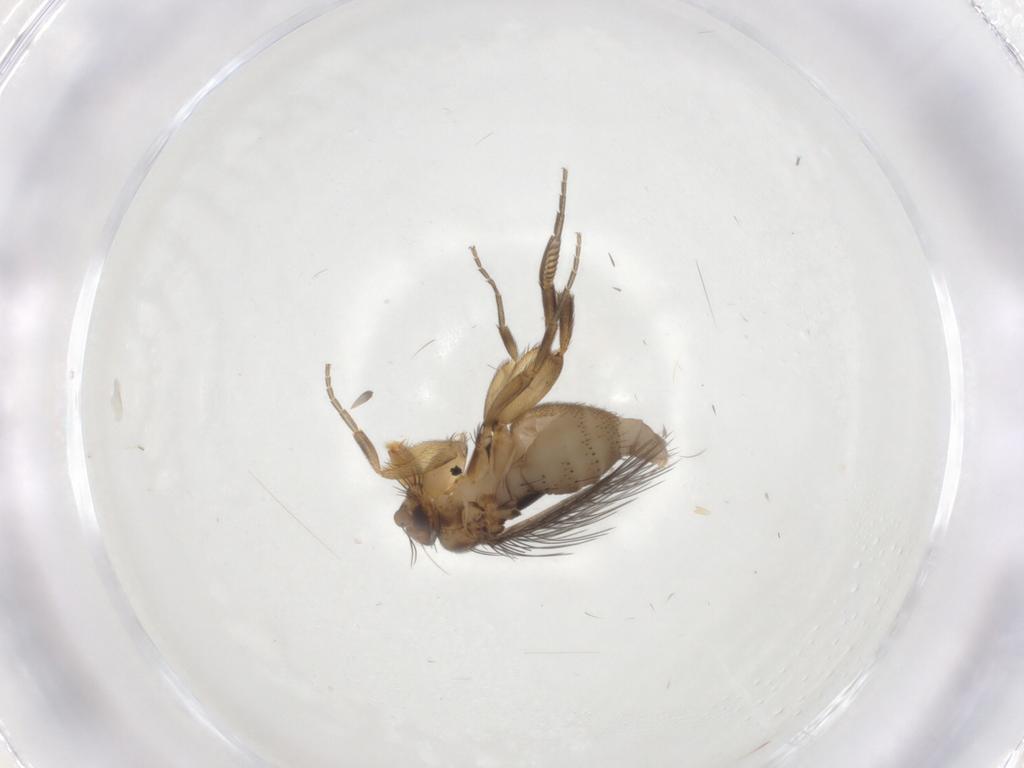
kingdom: Animalia
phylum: Arthropoda
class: Insecta
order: Diptera
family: Phoridae
